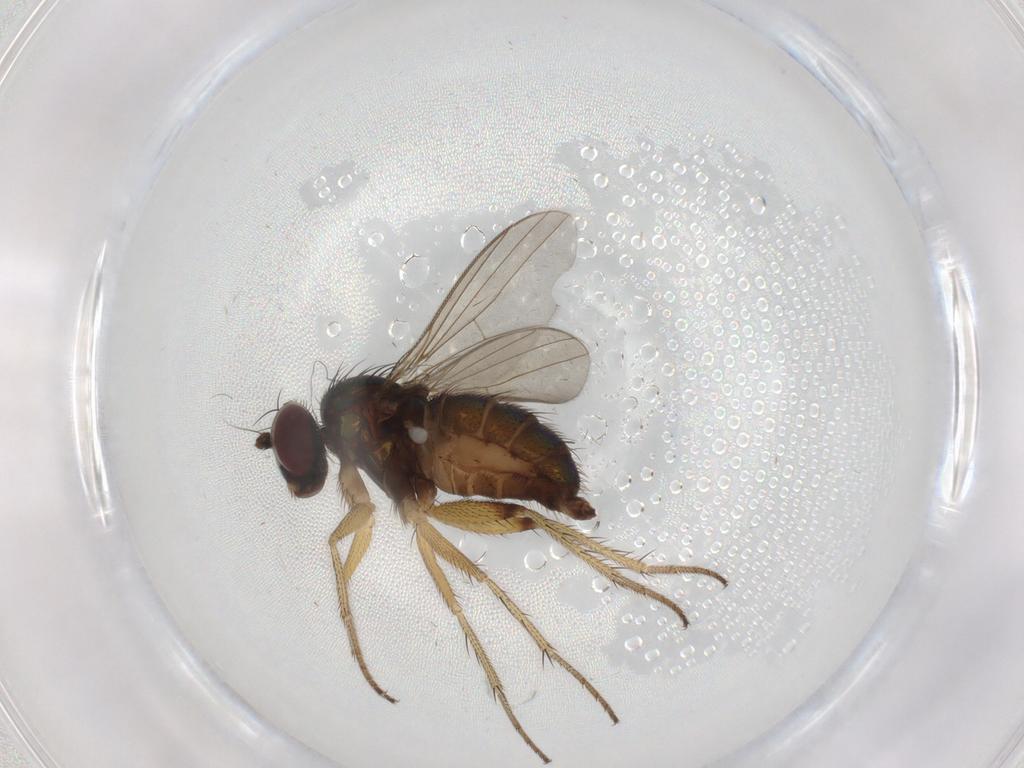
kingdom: Animalia
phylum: Arthropoda
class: Insecta
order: Diptera
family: Dolichopodidae
